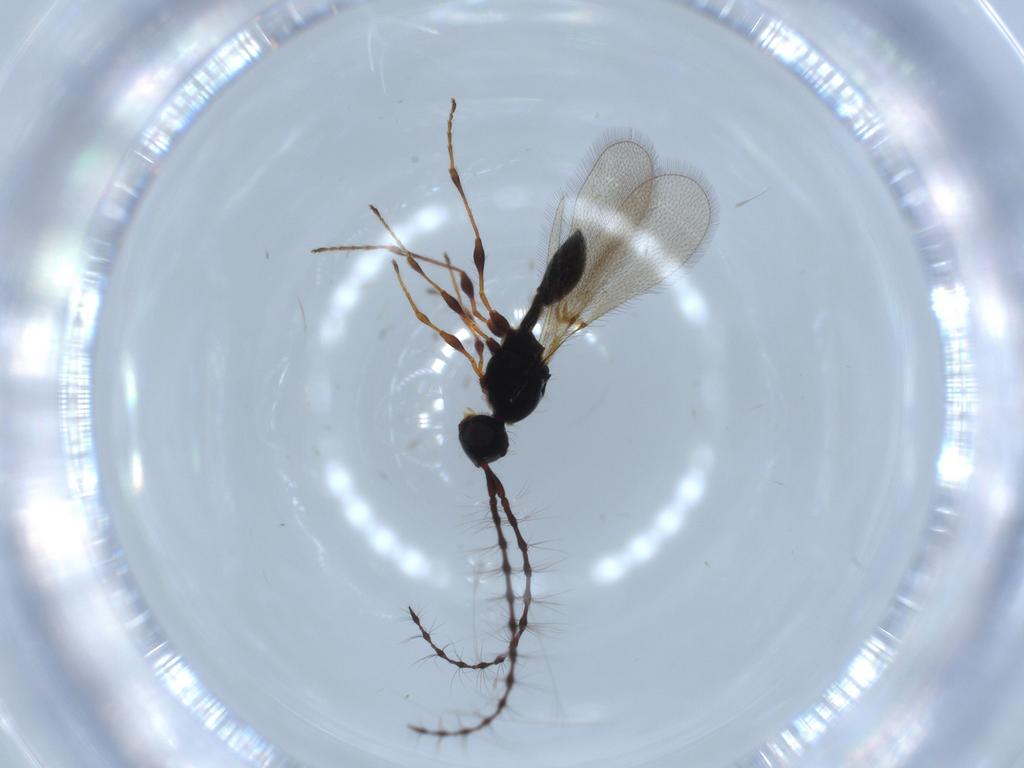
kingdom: Animalia
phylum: Arthropoda
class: Insecta
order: Hymenoptera
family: Diapriidae
